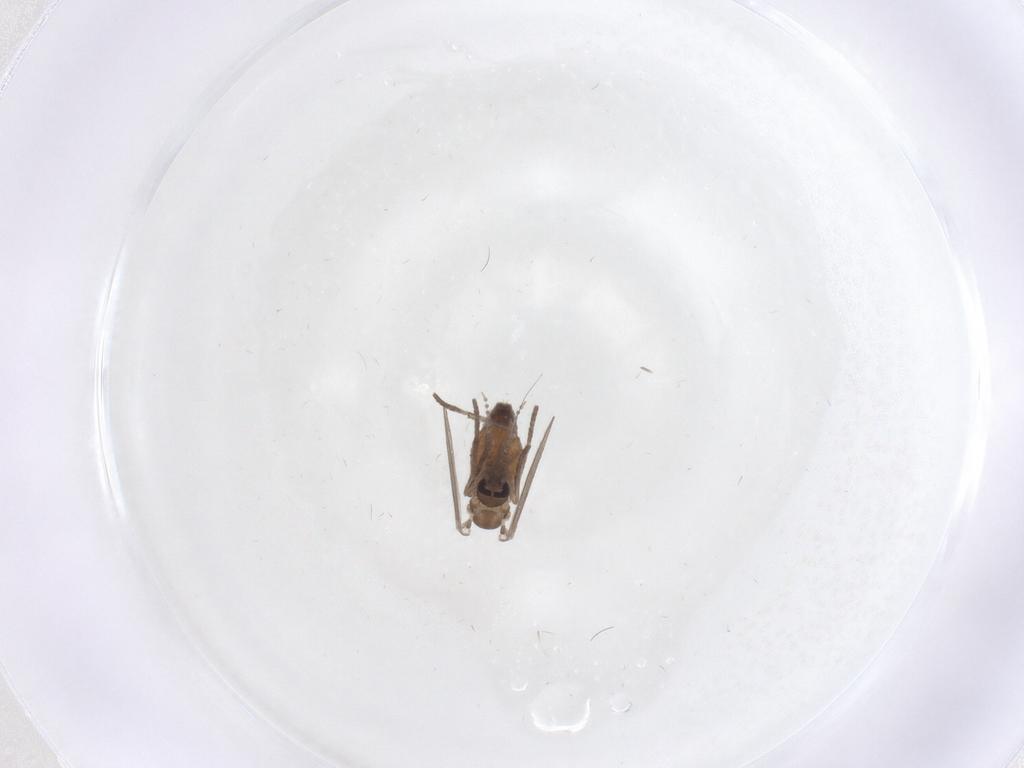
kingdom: Animalia
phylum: Arthropoda
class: Insecta
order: Diptera
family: Psychodidae
